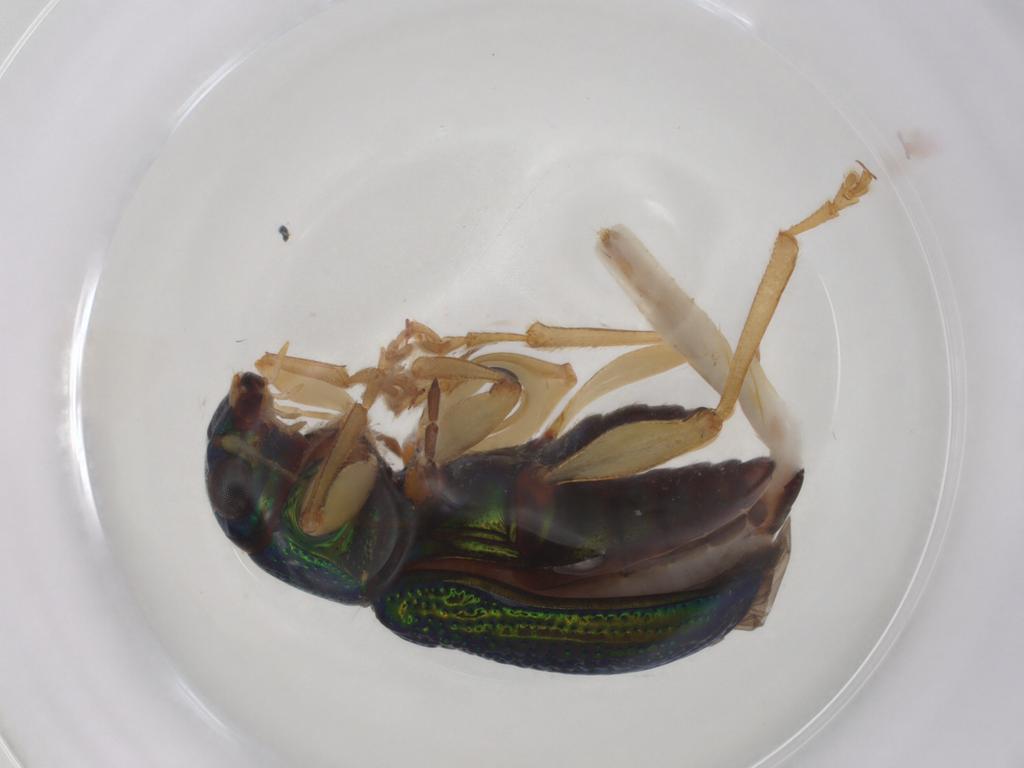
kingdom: Animalia
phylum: Arthropoda
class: Insecta
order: Coleoptera
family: Chrysomelidae
